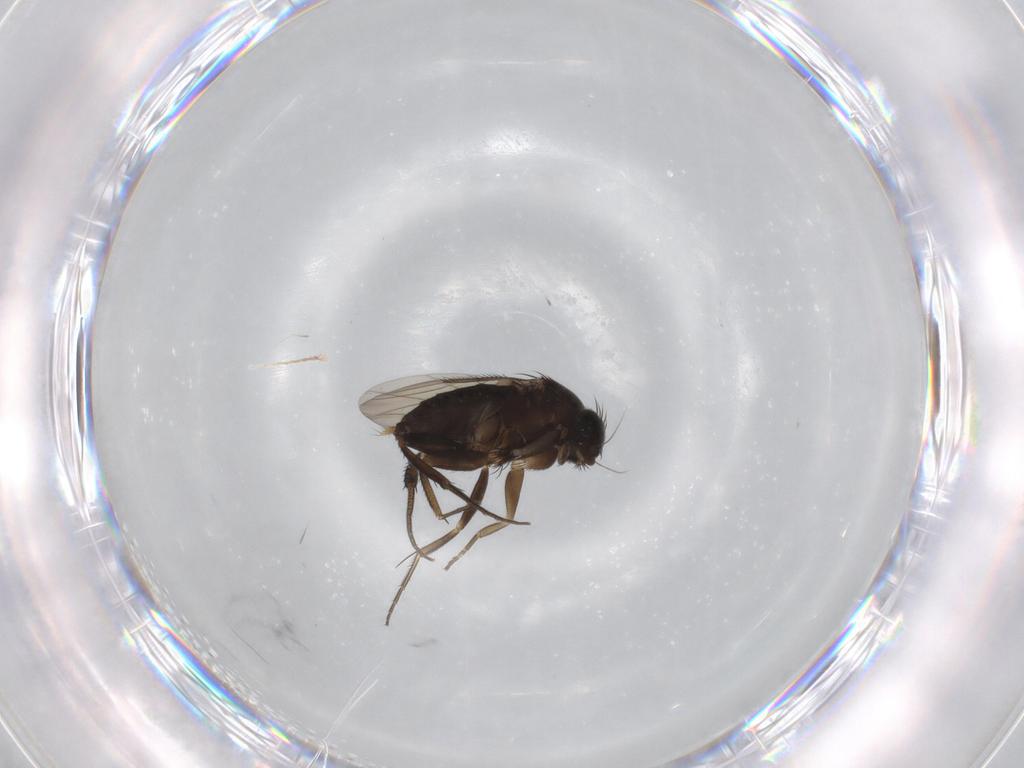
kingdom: Animalia
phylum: Arthropoda
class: Insecta
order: Diptera
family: Phoridae
